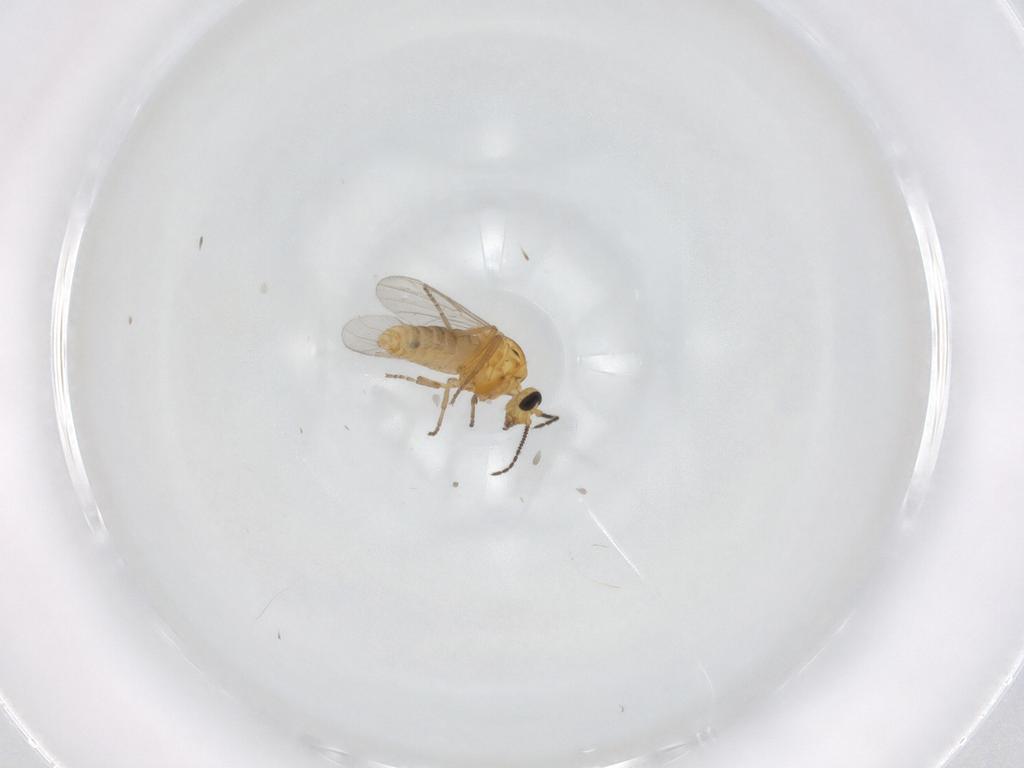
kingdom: Animalia
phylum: Arthropoda
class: Insecta
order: Diptera
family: Ceratopogonidae
